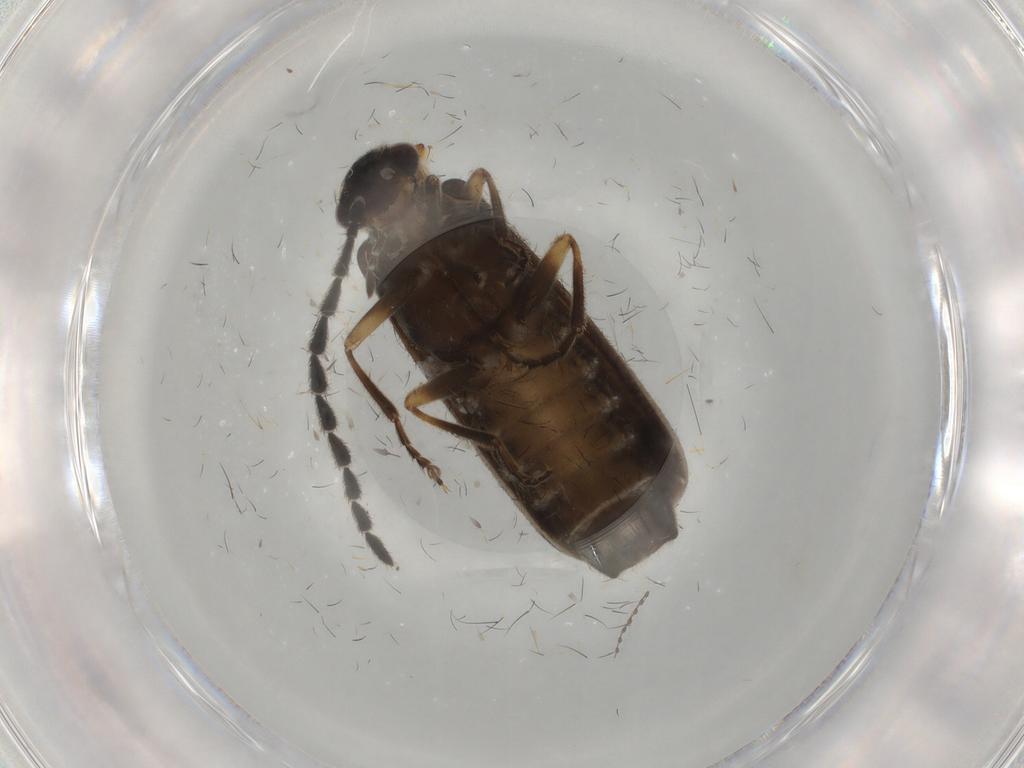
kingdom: Animalia
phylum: Arthropoda
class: Insecta
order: Coleoptera
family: Cantharidae
